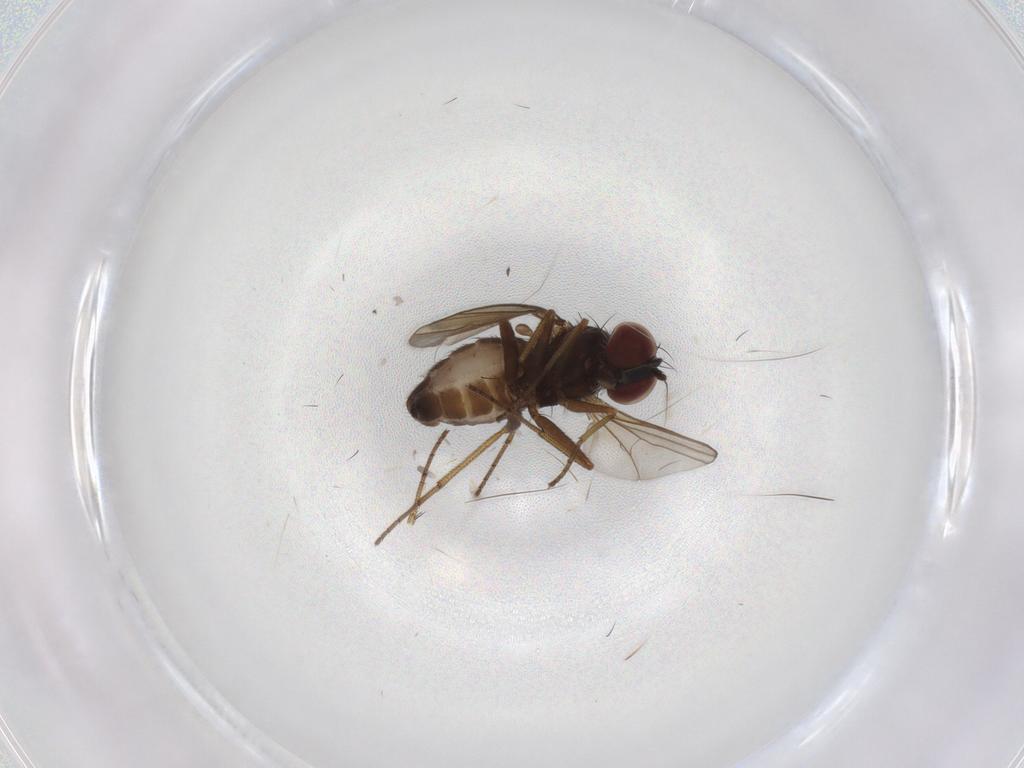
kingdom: Animalia
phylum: Arthropoda
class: Insecta
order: Diptera
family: Dolichopodidae
